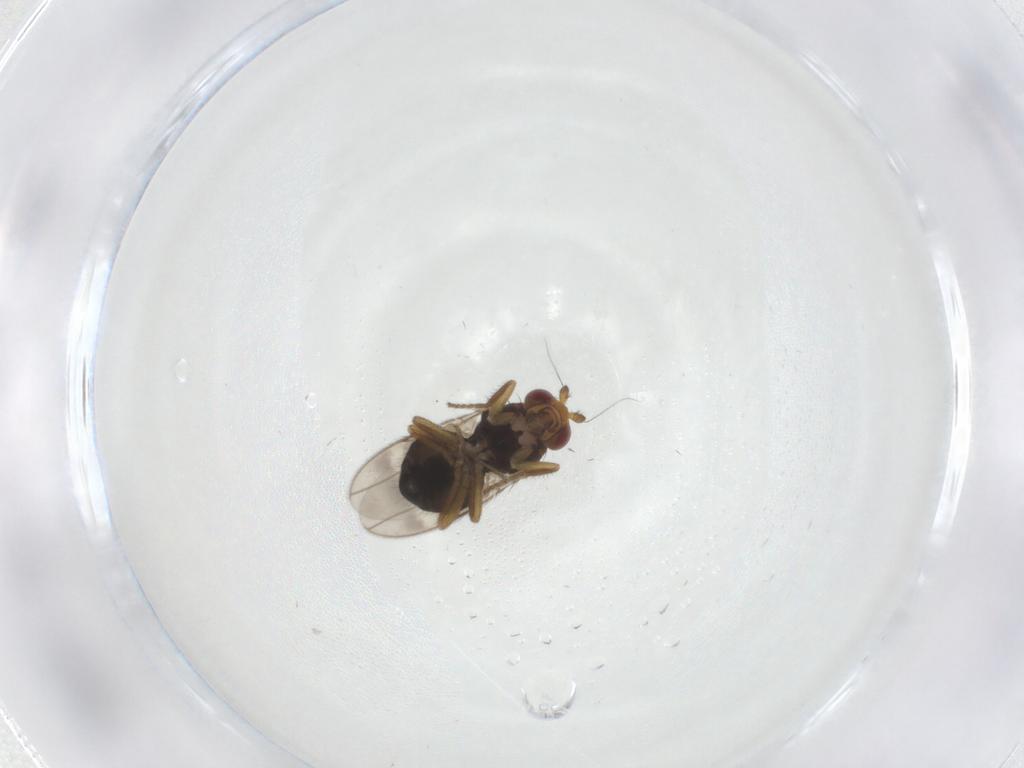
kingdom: Animalia
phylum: Arthropoda
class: Insecta
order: Diptera
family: Sphaeroceridae
